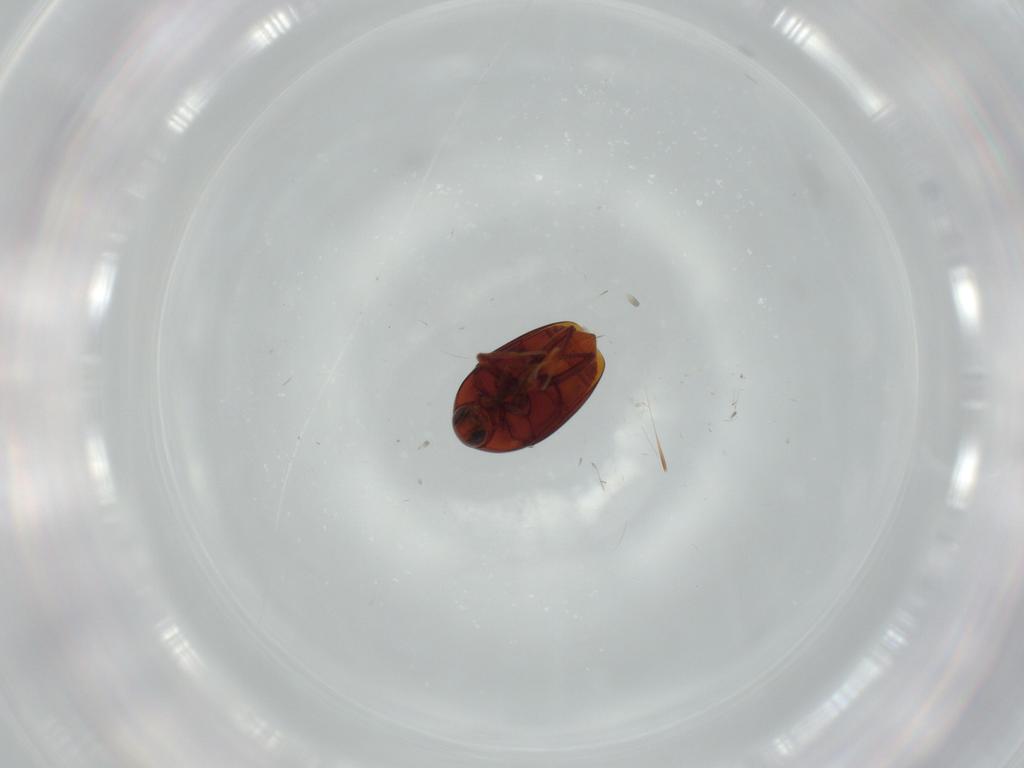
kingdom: Animalia
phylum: Arthropoda
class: Insecta
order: Coleoptera
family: Staphylinidae
